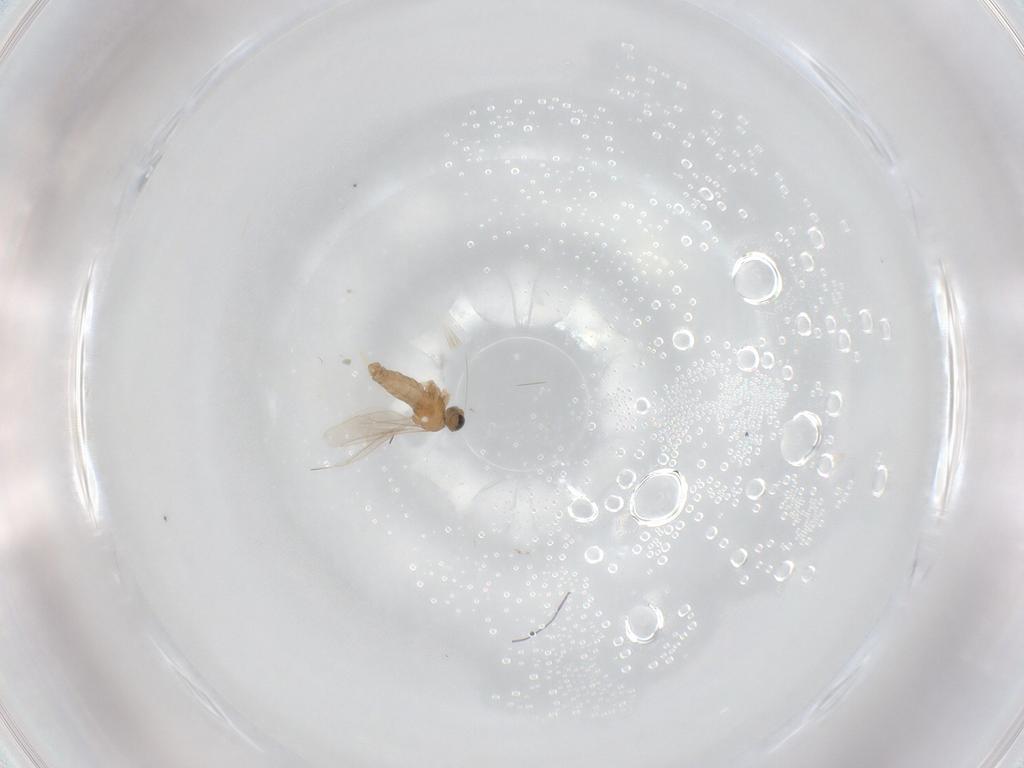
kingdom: Animalia
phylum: Arthropoda
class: Insecta
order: Diptera
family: Cecidomyiidae
